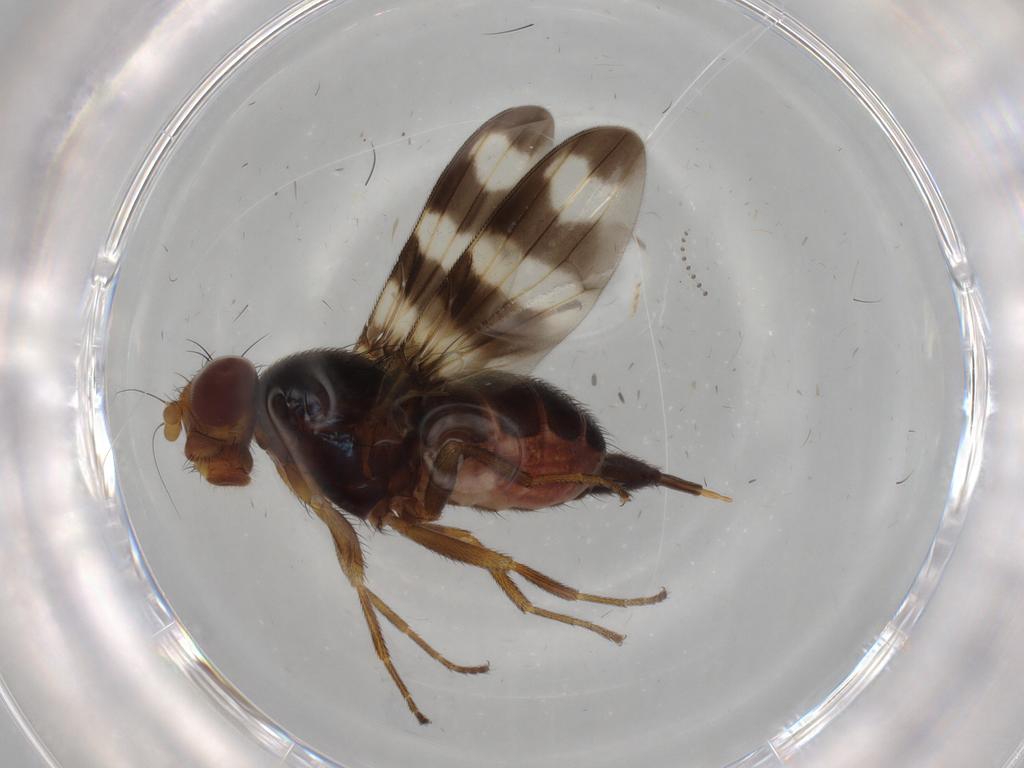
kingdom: Animalia
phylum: Arthropoda
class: Insecta
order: Diptera
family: Ulidiidae
